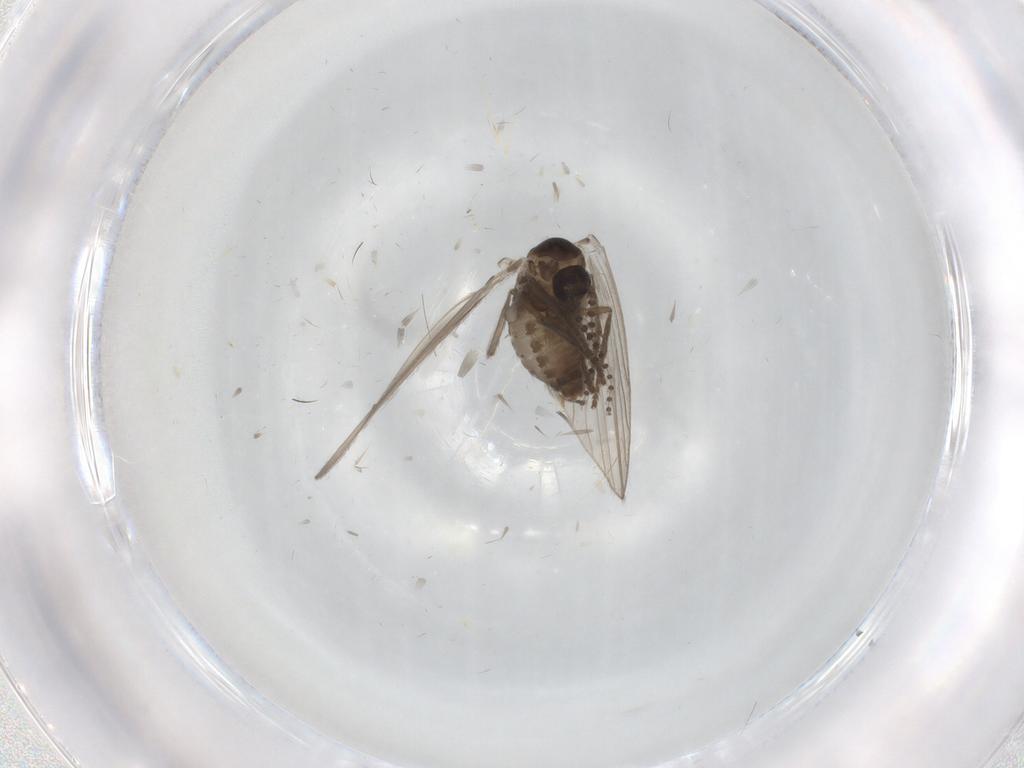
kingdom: Animalia
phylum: Arthropoda
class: Insecta
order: Diptera
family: Psychodidae
